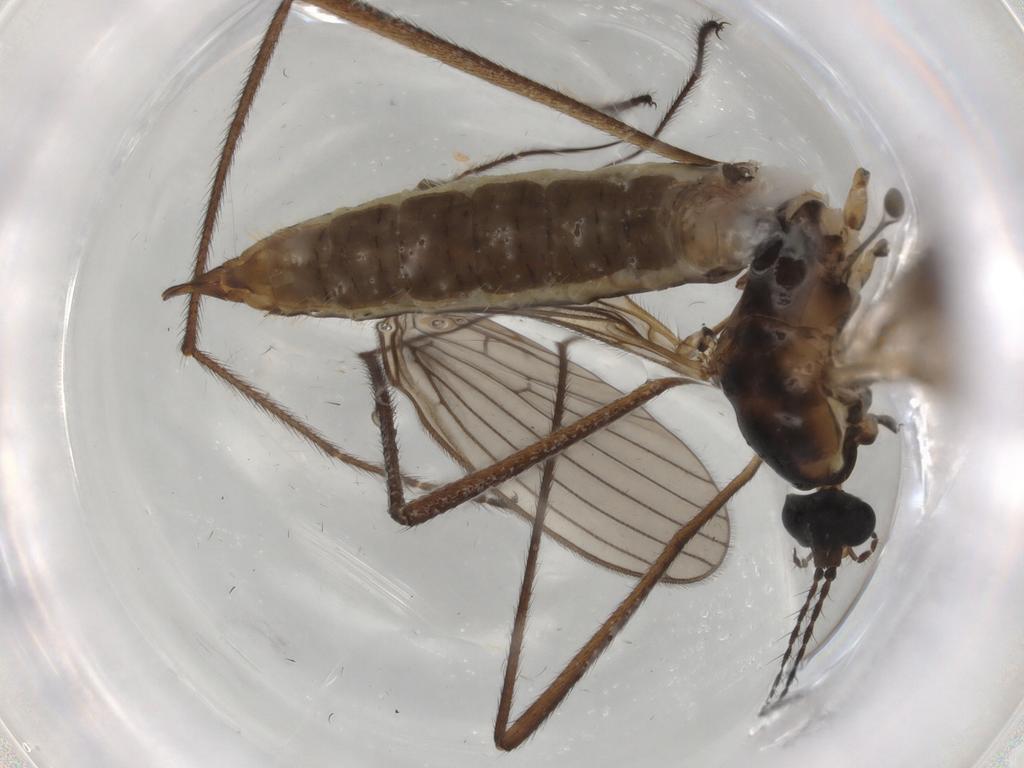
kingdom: Animalia
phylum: Arthropoda
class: Insecta
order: Diptera
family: Limoniidae
